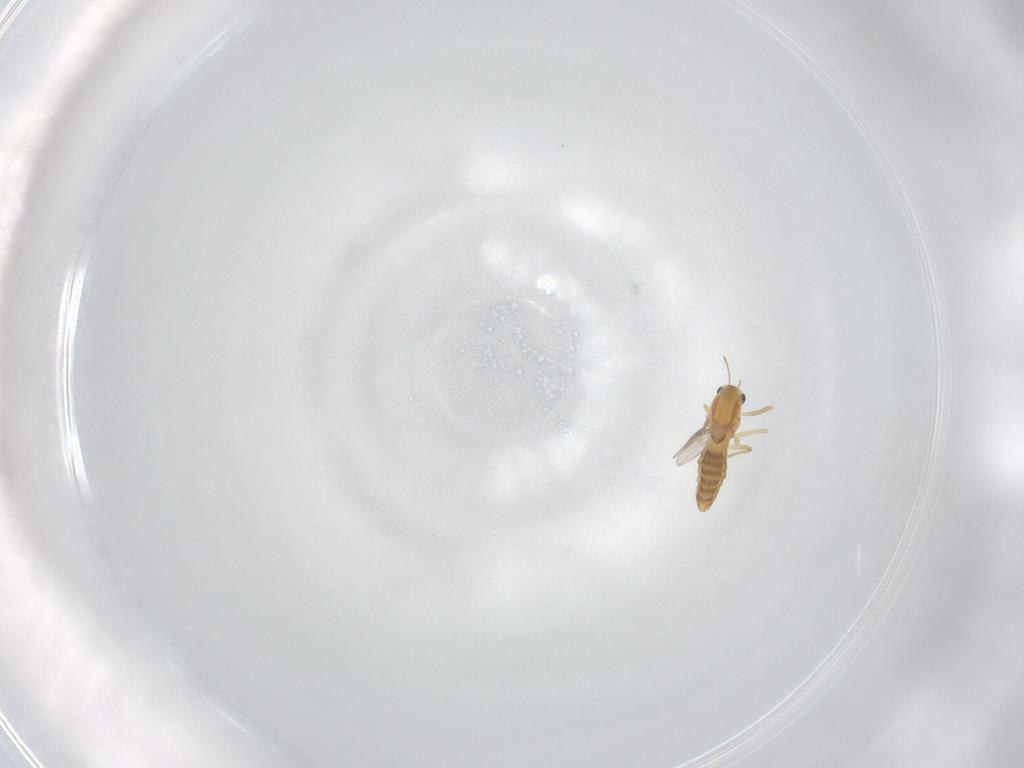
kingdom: Animalia
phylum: Arthropoda
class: Insecta
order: Diptera
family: Chironomidae
